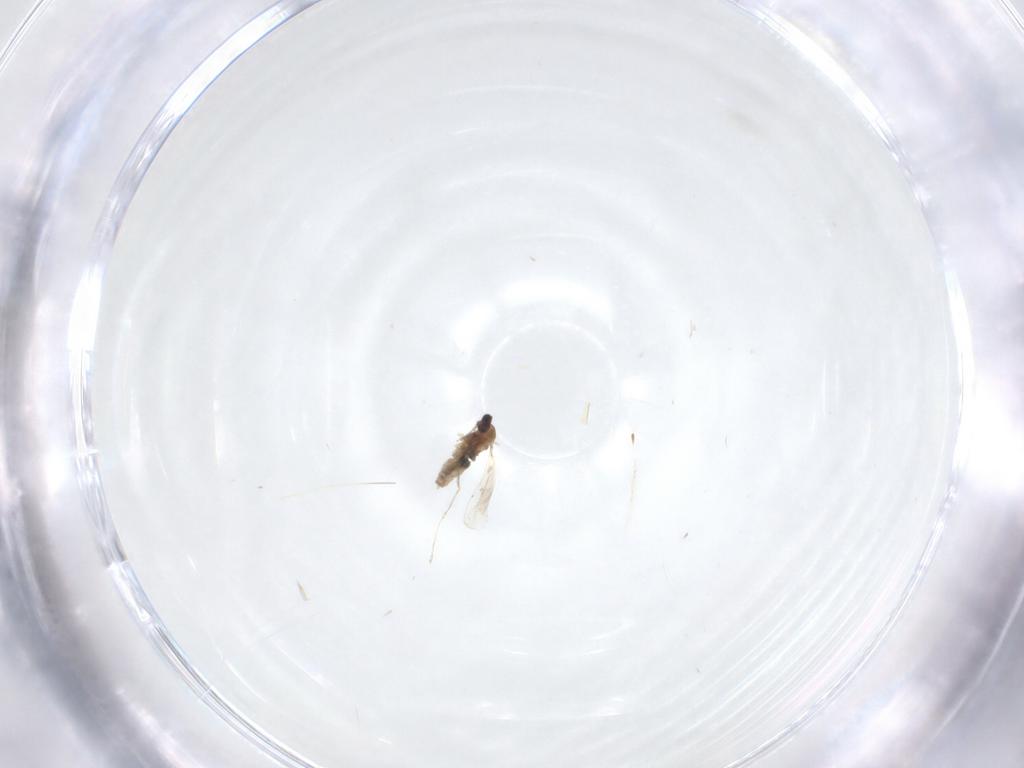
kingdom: Animalia
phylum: Arthropoda
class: Insecta
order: Diptera
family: Cecidomyiidae
